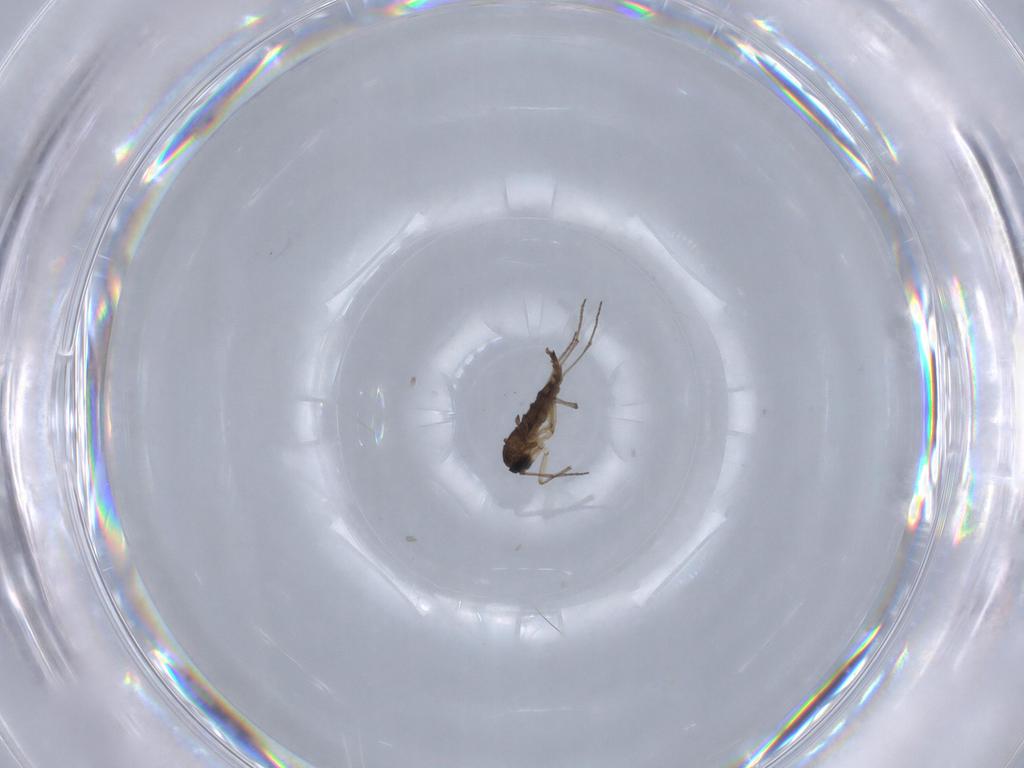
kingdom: Animalia
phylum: Arthropoda
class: Insecta
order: Diptera
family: Sciaridae
